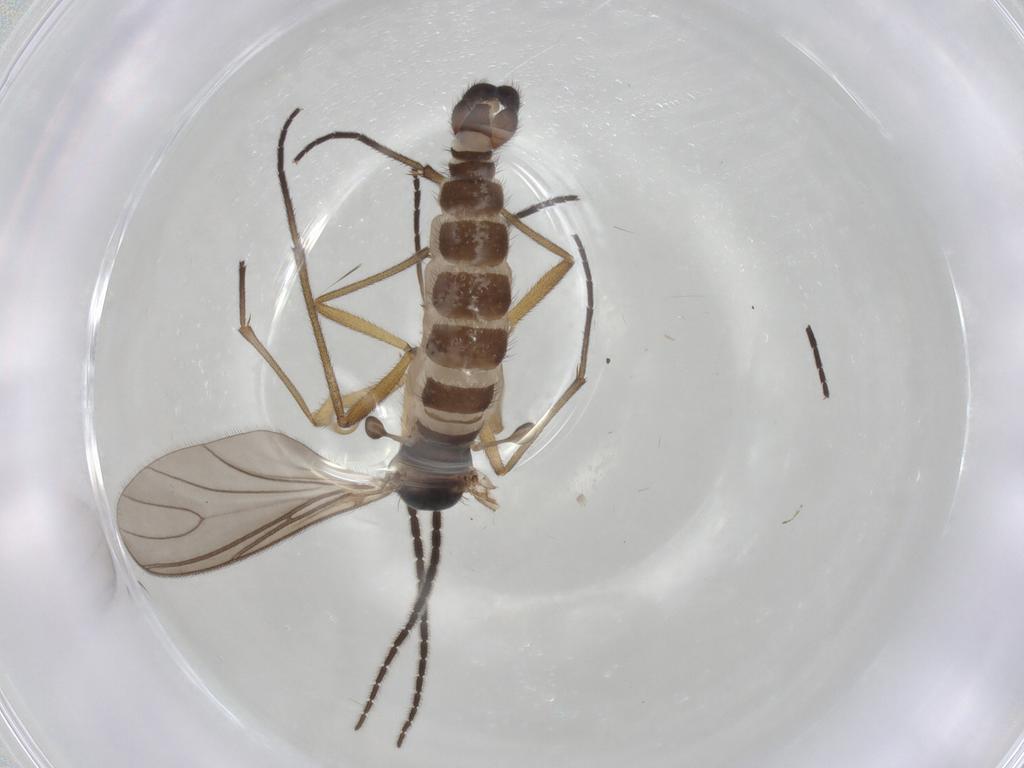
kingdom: Animalia
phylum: Arthropoda
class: Insecta
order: Diptera
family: Sciaridae
